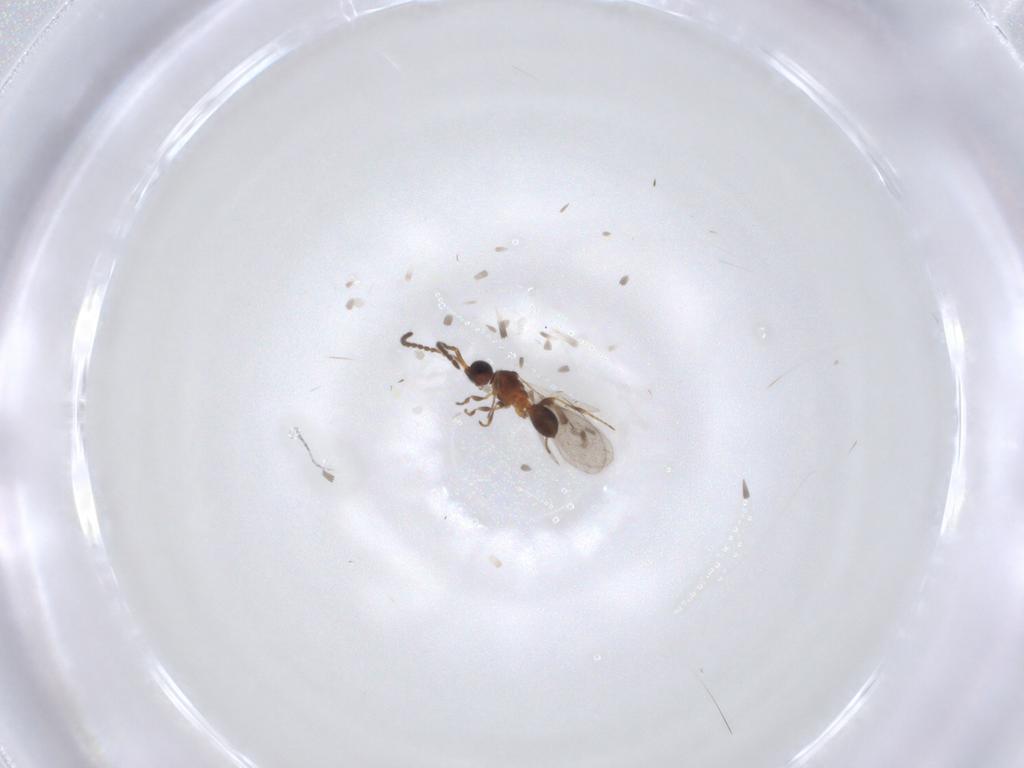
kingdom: Animalia
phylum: Arthropoda
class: Insecta
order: Hymenoptera
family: Diapriidae
